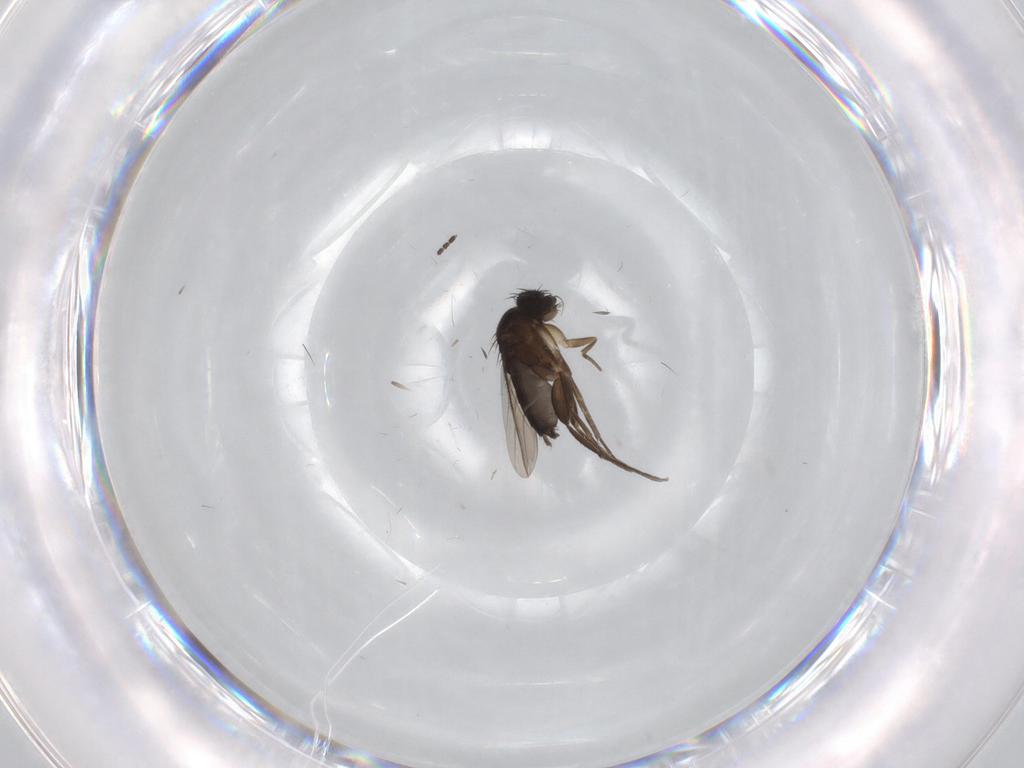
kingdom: Animalia
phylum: Arthropoda
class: Insecta
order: Diptera
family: Phoridae
